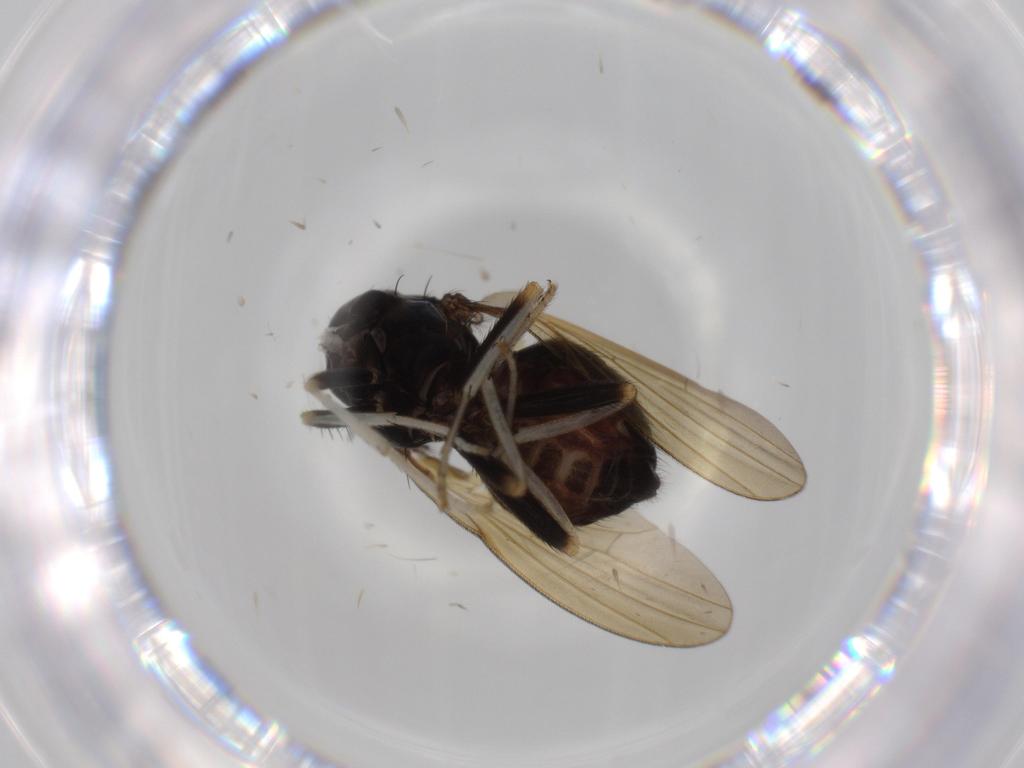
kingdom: Animalia
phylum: Arthropoda
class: Insecta
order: Diptera
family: Sciaridae
